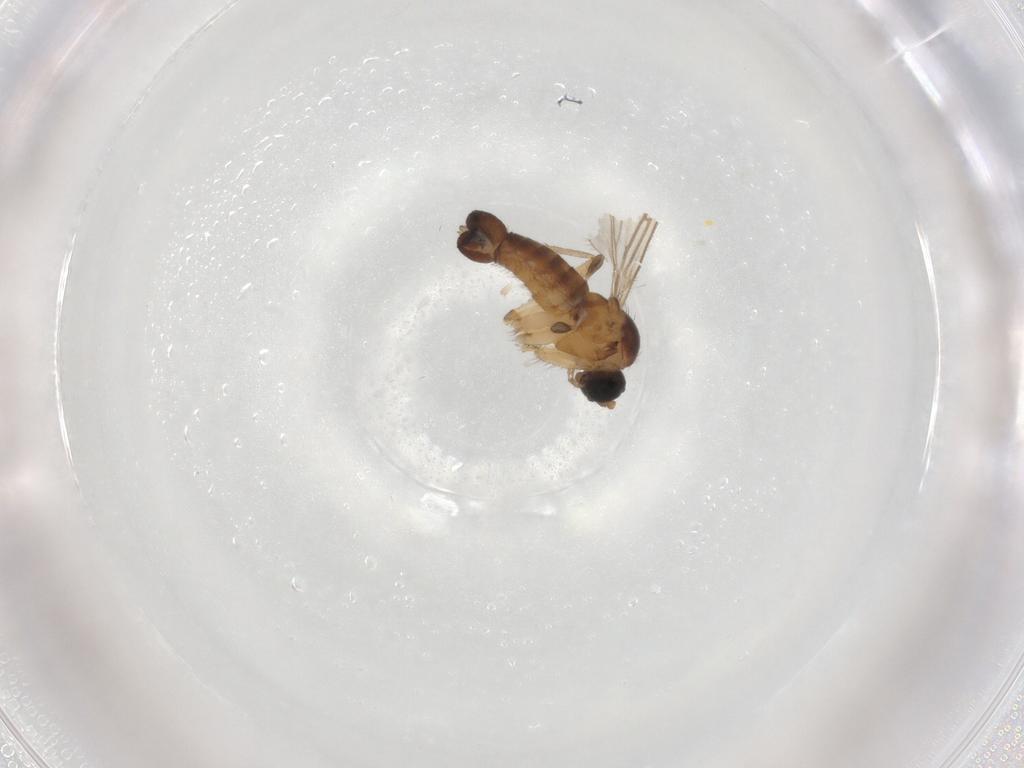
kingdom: Animalia
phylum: Arthropoda
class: Insecta
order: Diptera
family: Sciaridae
